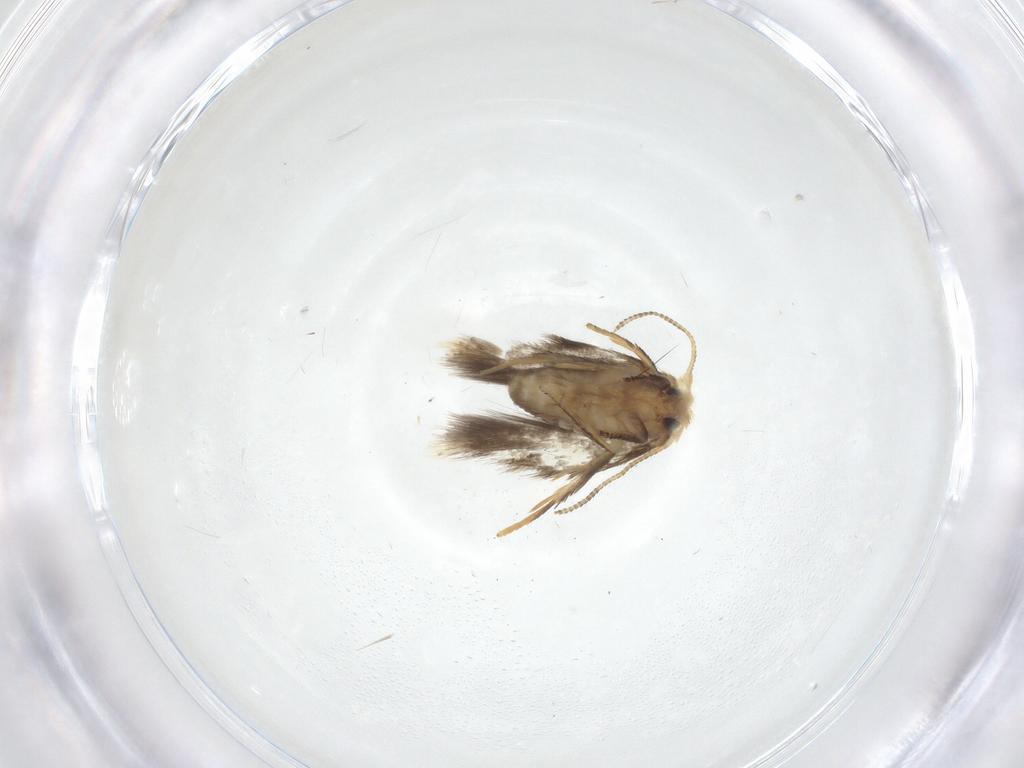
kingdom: Animalia
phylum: Arthropoda
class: Insecta
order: Lepidoptera
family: Nepticulidae
